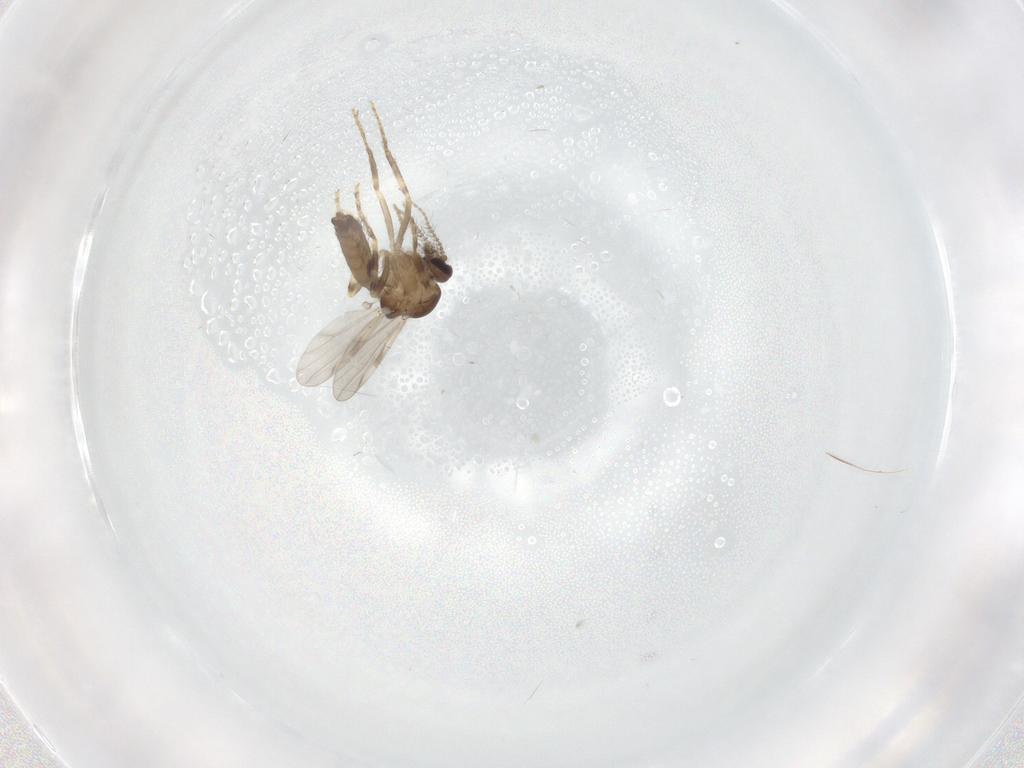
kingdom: Animalia
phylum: Arthropoda
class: Insecta
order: Diptera
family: Ceratopogonidae
